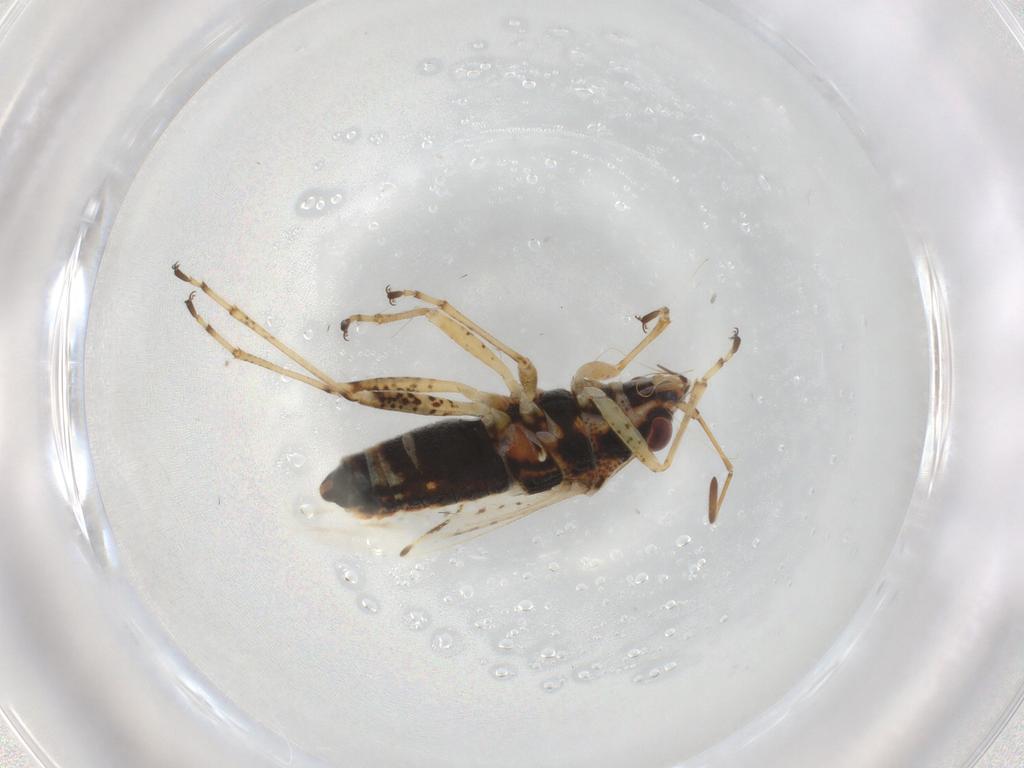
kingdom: Animalia
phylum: Arthropoda
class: Insecta
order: Hemiptera
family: Lygaeidae
